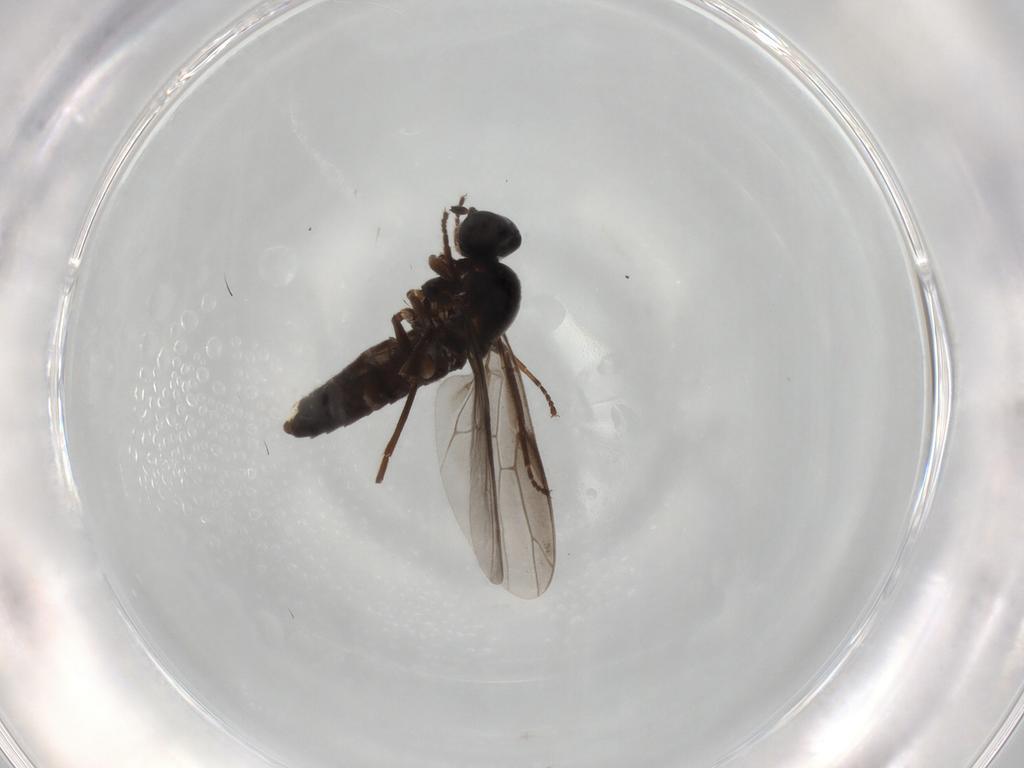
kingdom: Animalia
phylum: Arthropoda
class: Insecta
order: Diptera
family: Scenopinidae
